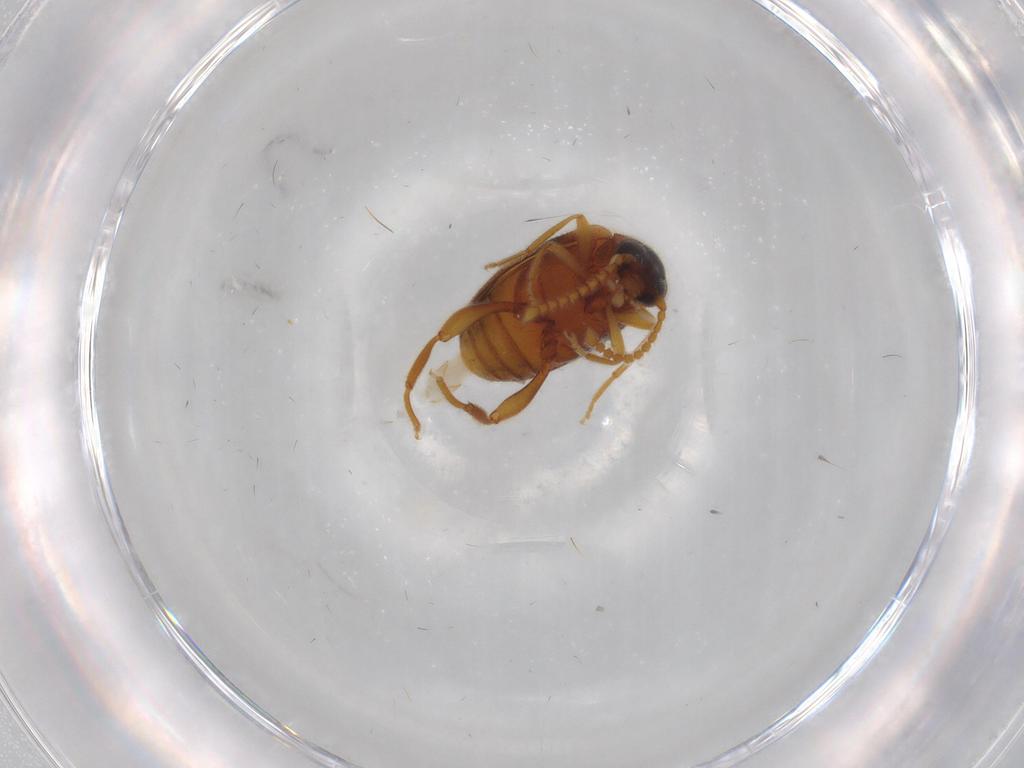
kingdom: Animalia
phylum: Arthropoda
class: Insecta
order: Coleoptera
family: Aderidae
